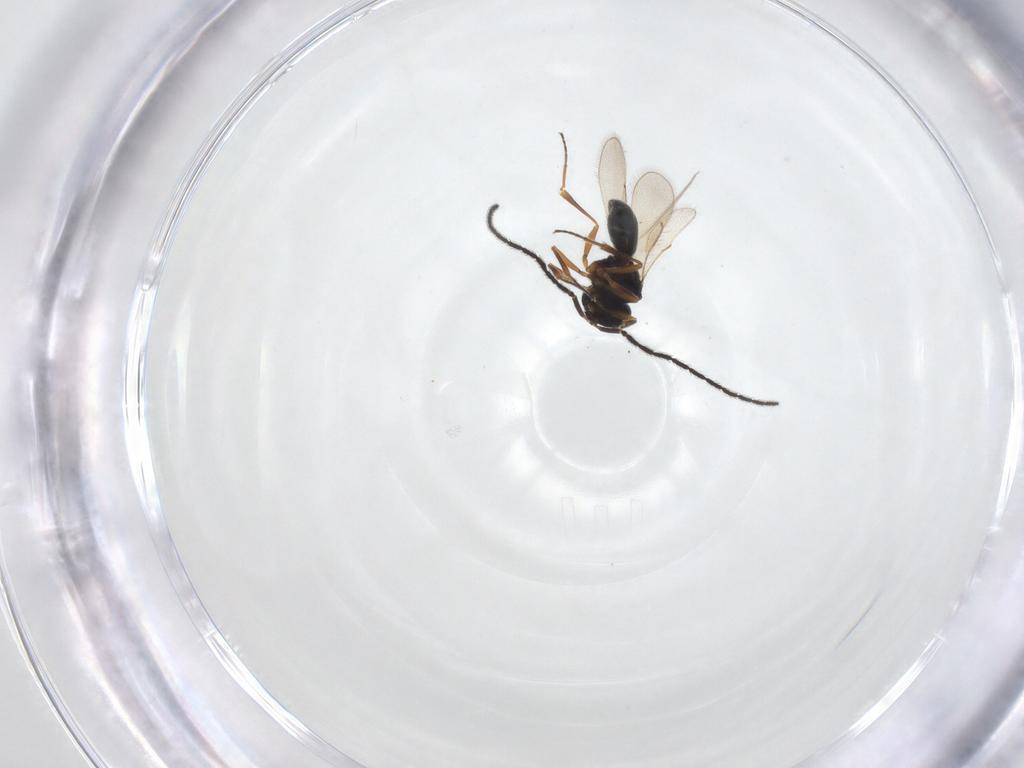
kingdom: Animalia
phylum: Arthropoda
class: Insecta
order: Hymenoptera
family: Scelionidae
